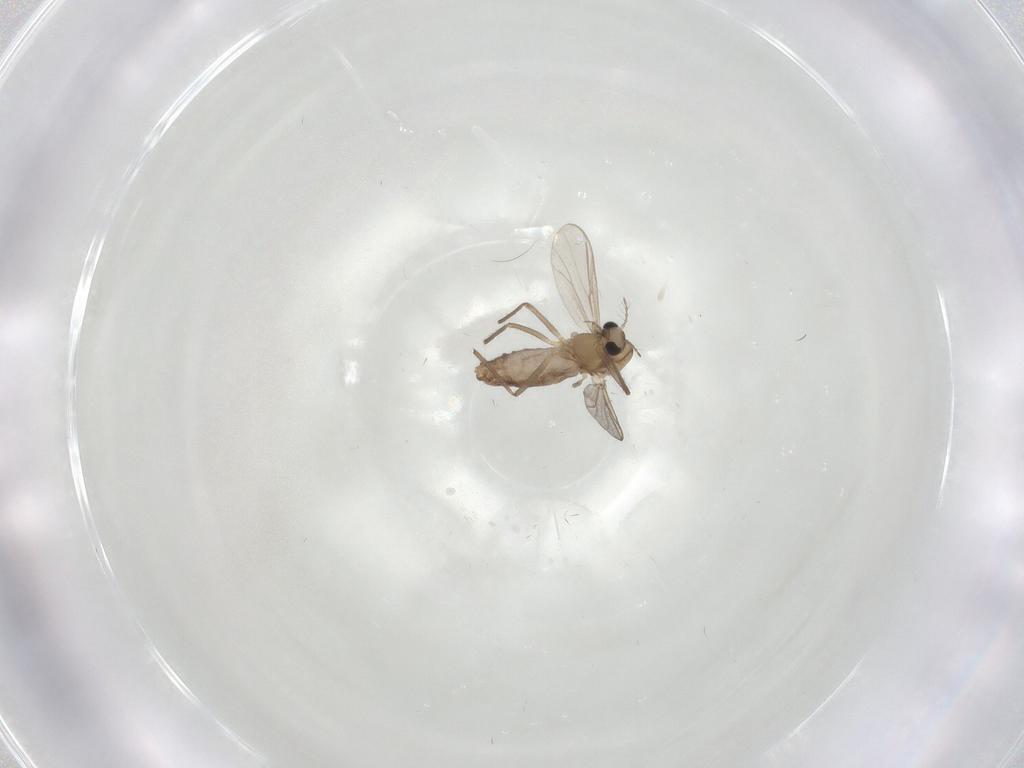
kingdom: Animalia
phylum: Arthropoda
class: Insecta
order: Diptera
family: Chironomidae
